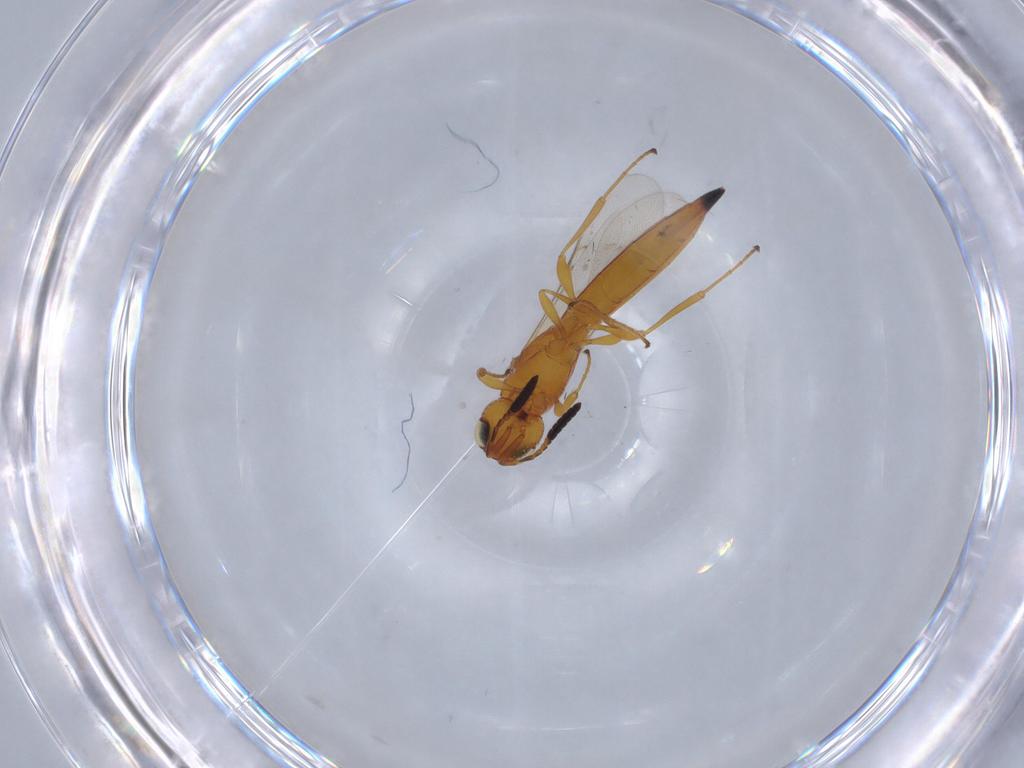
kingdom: Animalia
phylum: Arthropoda
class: Insecta
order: Hymenoptera
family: Scelionidae
